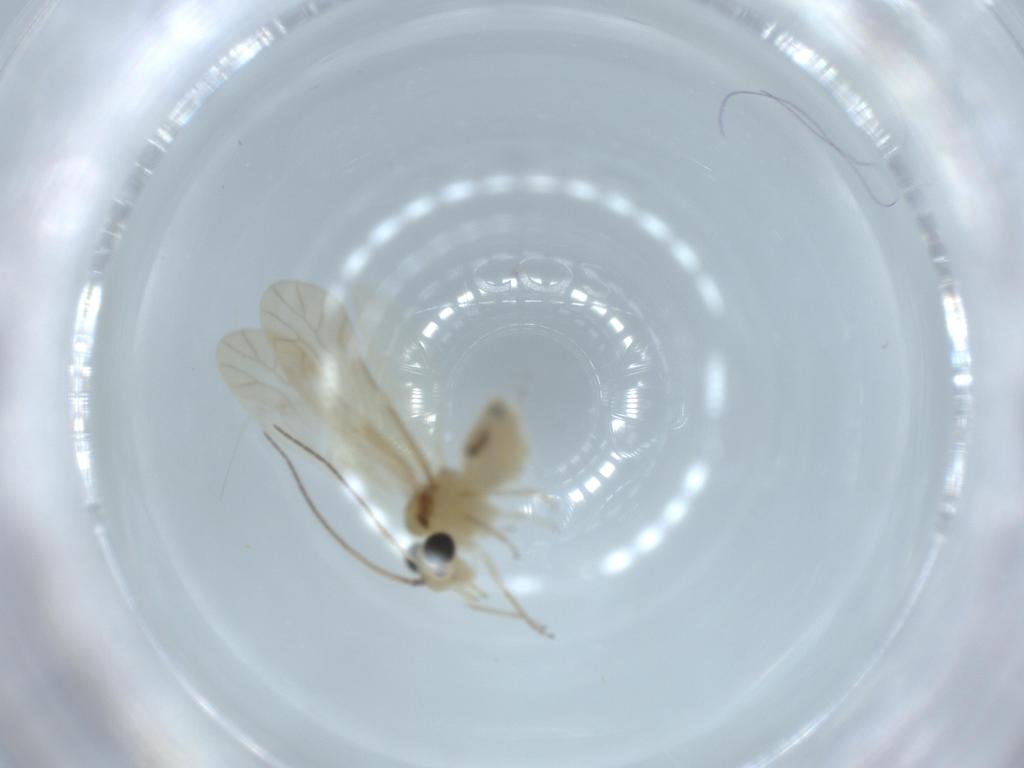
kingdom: Animalia
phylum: Arthropoda
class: Insecta
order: Psocodea
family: Caeciliusidae
